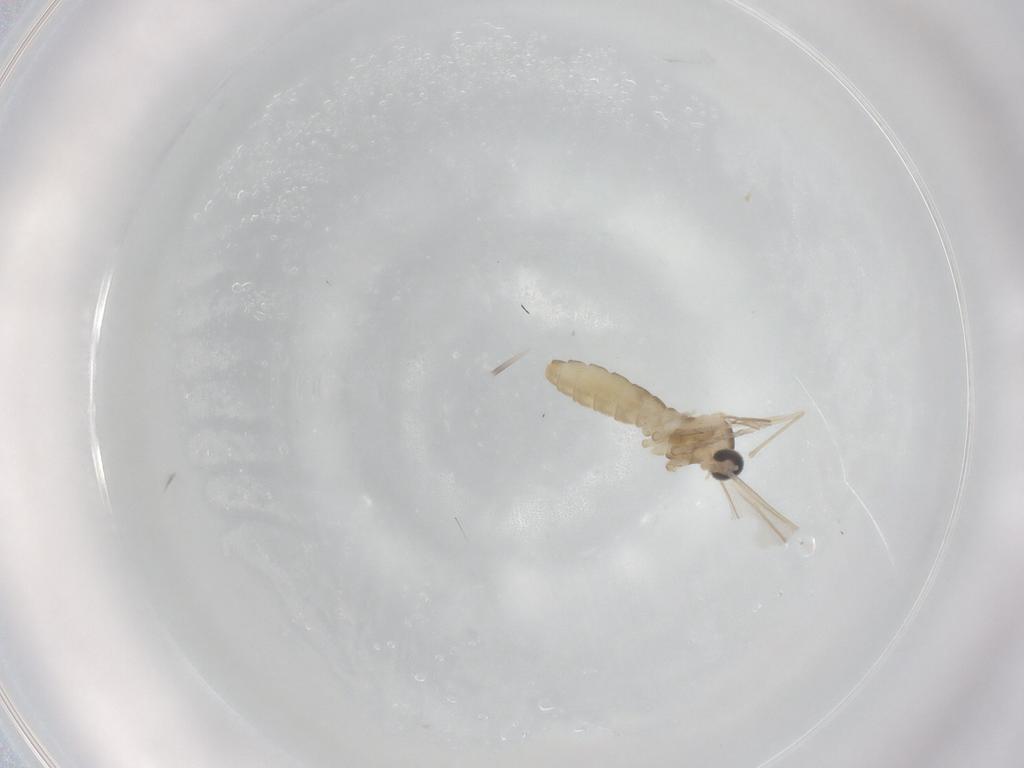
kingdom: Animalia
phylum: Arthropoda
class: Insecta
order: Diptera
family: Cecidomyiidae
